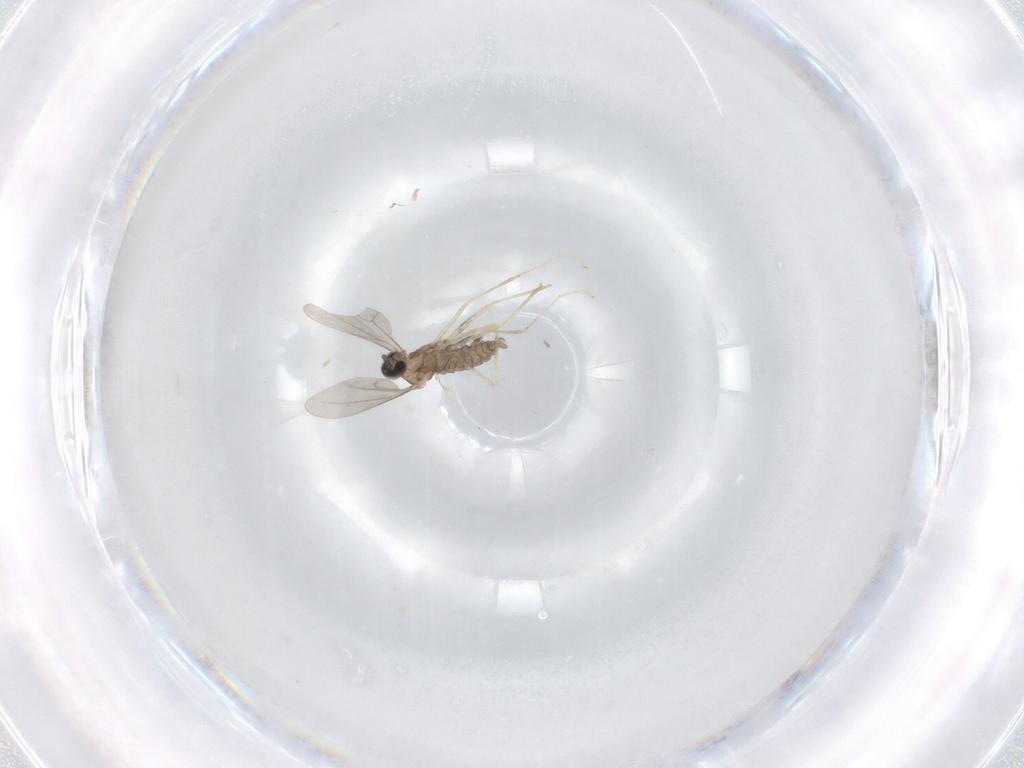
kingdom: Animalia
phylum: Arthropoda
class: Insecta
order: Diptera
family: Cecidomyiidae
